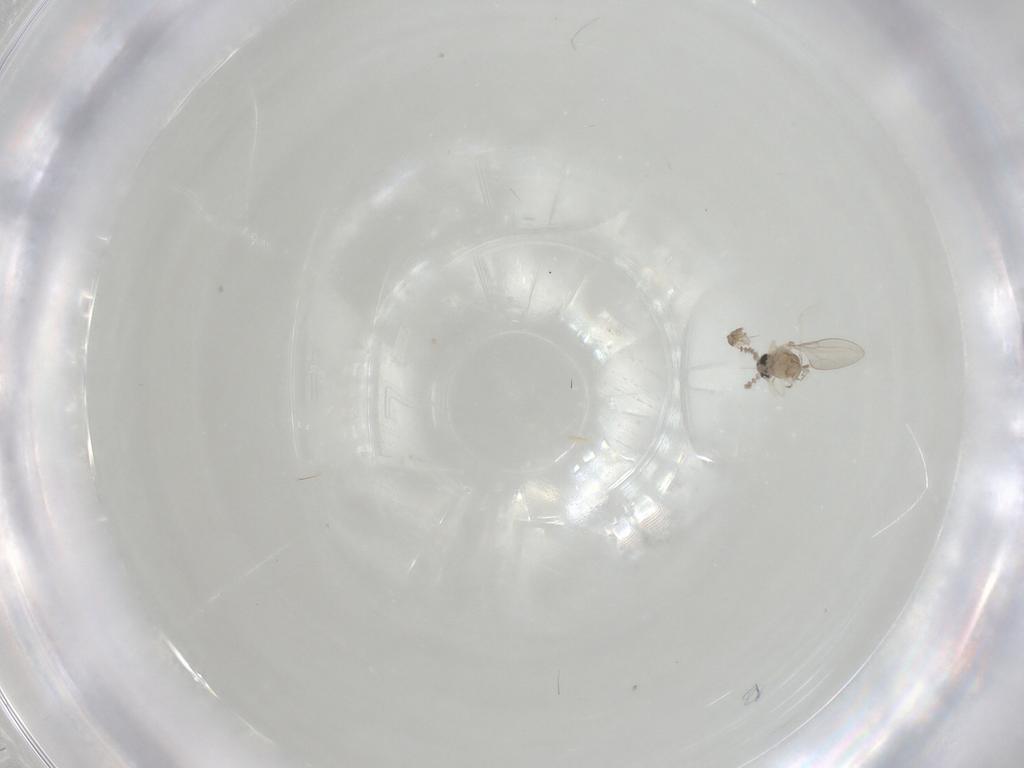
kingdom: Animalia
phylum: Arthropoda
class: Insecta
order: Diptera
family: Cecidomyiidae
